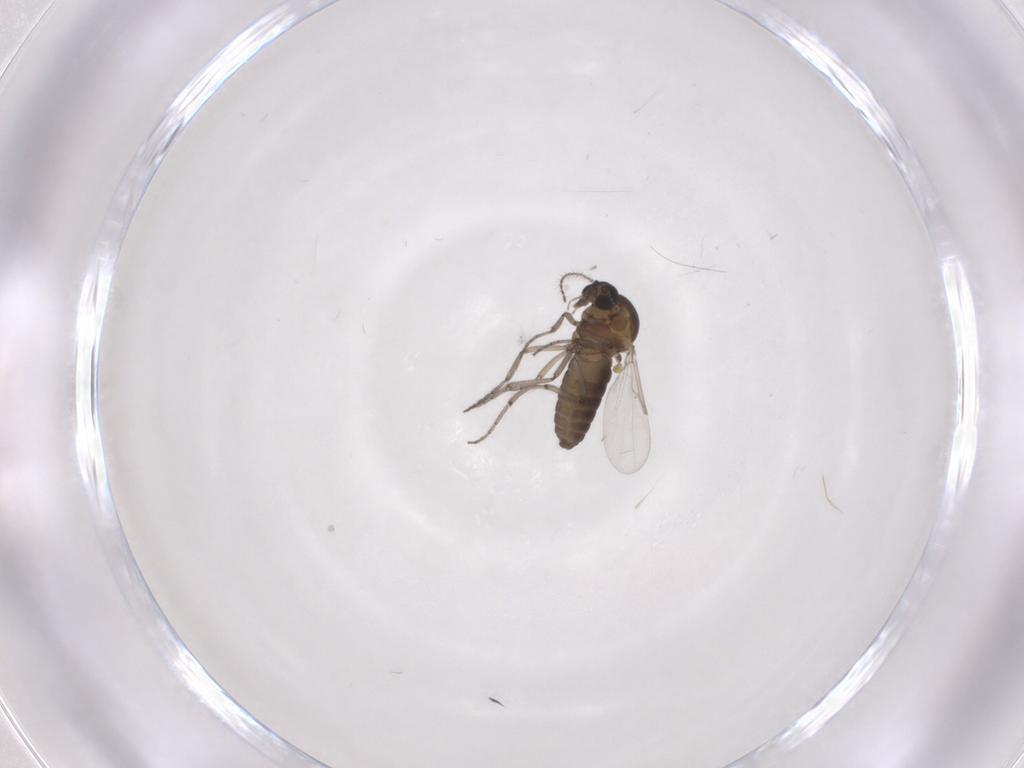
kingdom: Animalia
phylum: Arthropoda
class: Insecta
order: Diptera
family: Ceratopogonidae
